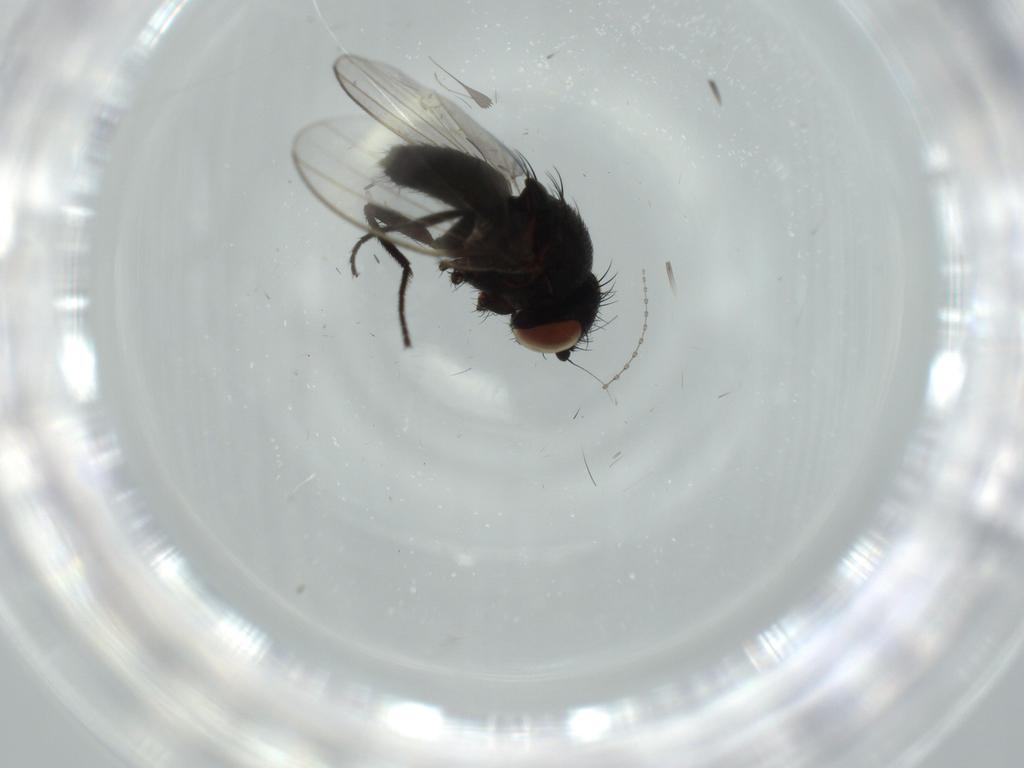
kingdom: Animalia
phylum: Arthropoda
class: Insecta
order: Diptera
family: Milichiidae
